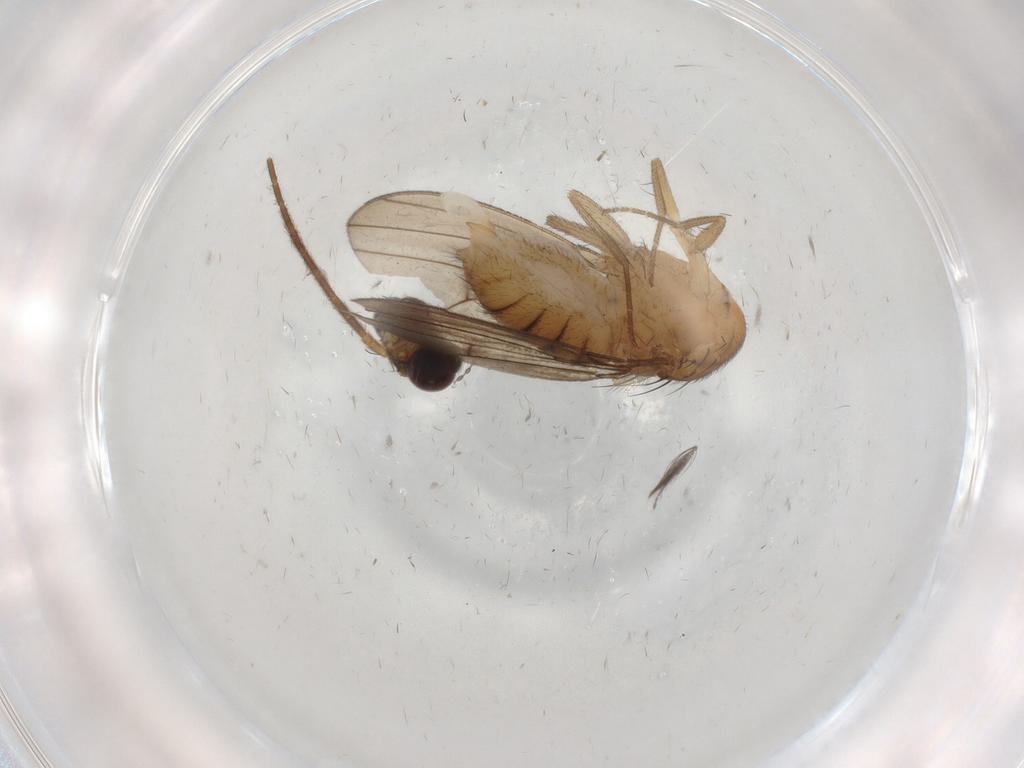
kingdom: Animalia
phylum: Arthropoda
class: Insecta
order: Diptera
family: Drosophilidae
